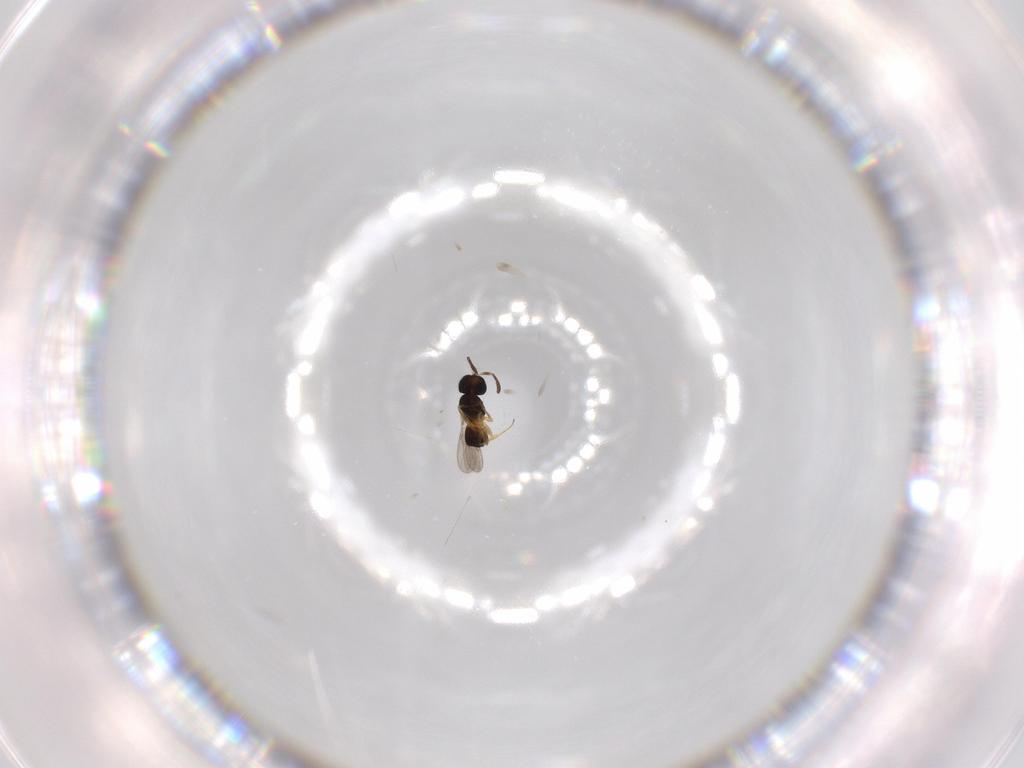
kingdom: Animalia
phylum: Arthropoda
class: Insecta
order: Hymenoptera
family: Scelionidae
